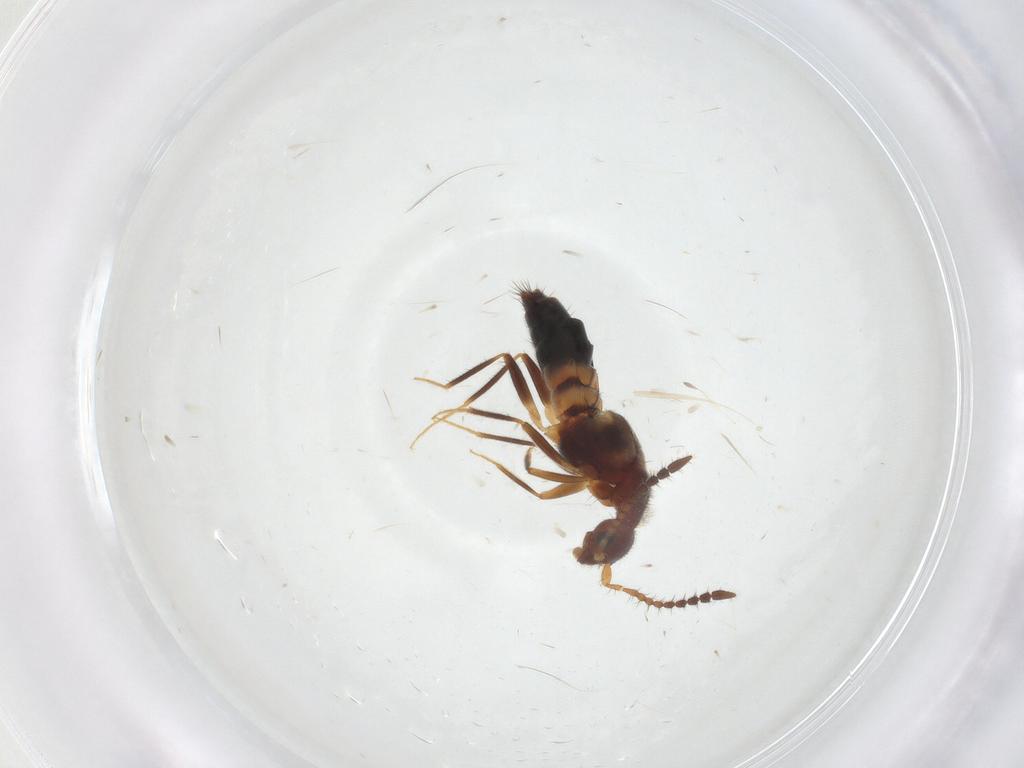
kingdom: Animalia
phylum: Arthropoda
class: Insecta
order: Coleoptera
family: Staphylinidae
